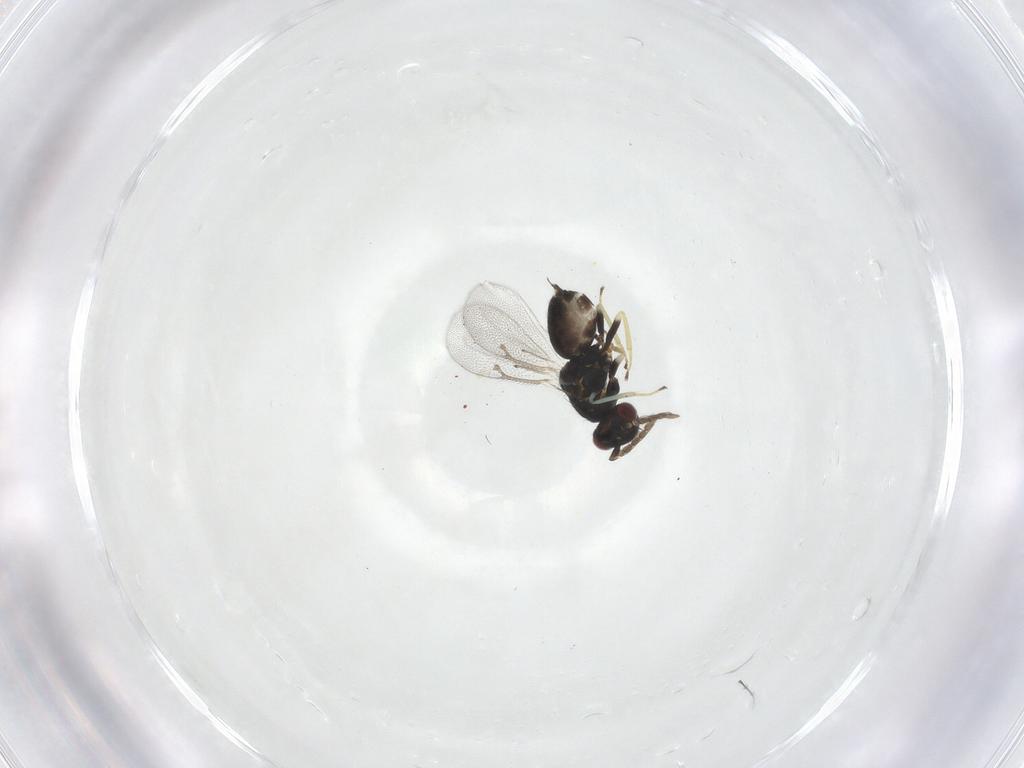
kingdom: Animalia
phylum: Arthropoda
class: Insecta
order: Hymenoptera
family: Eulophidae
